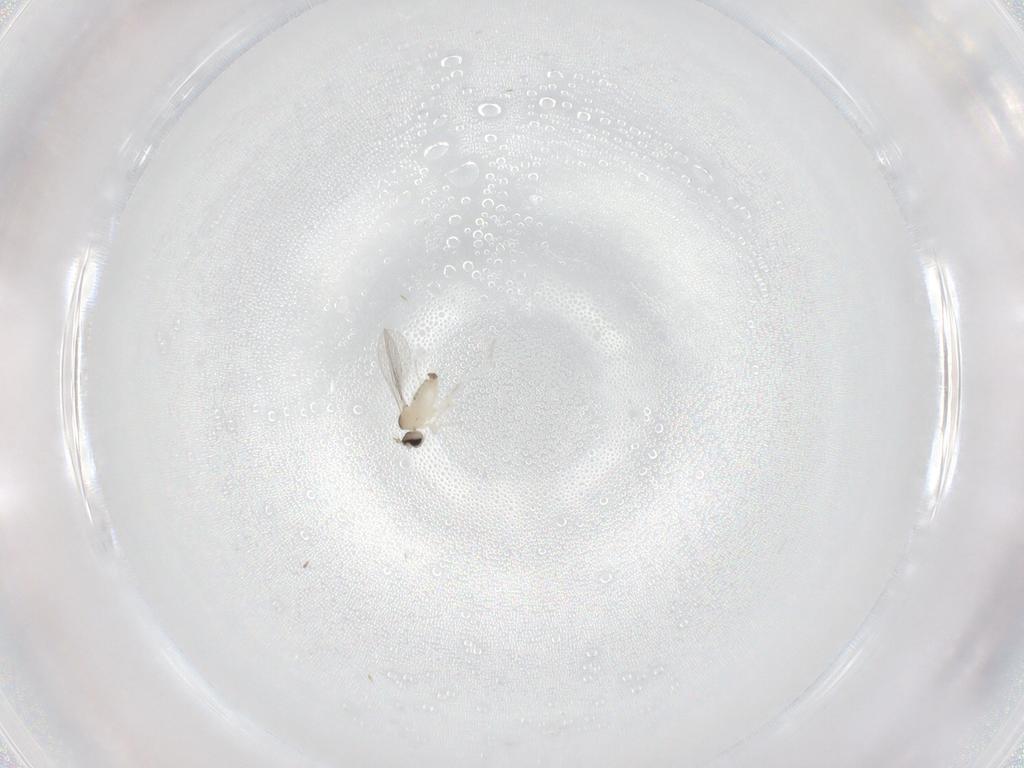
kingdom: Animalia
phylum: Arthropoda
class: Insecta
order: Diptera
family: Cecidomyiidae
